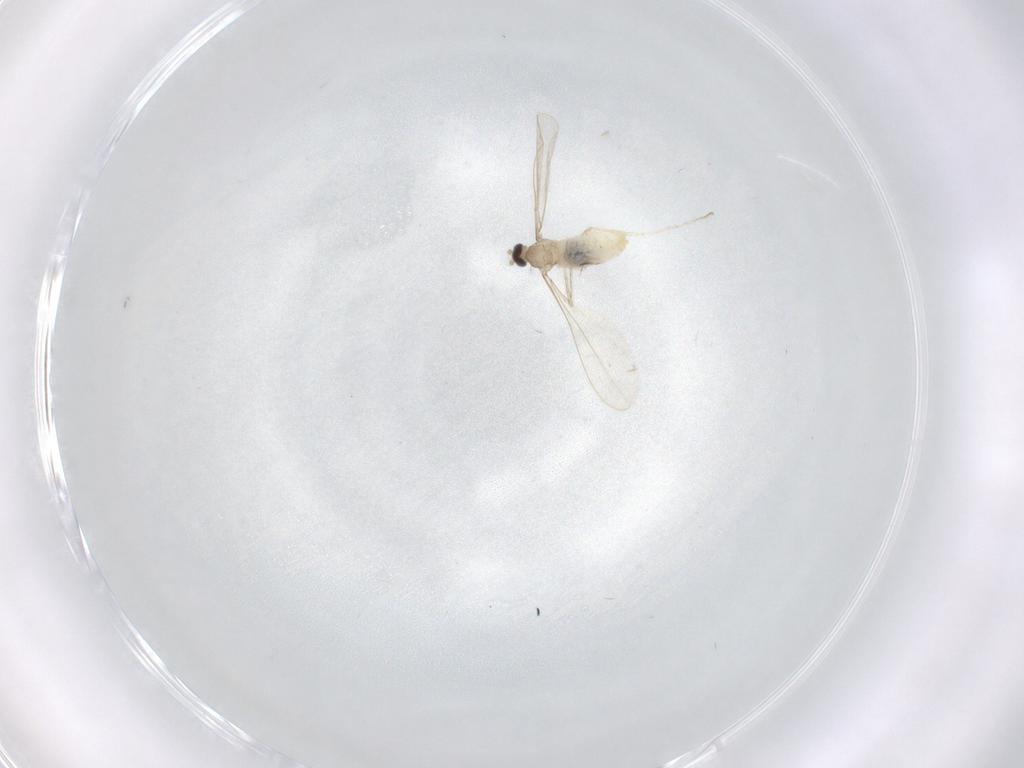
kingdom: Animalia
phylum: Arthropoda
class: Insecta
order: Diptera
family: Cecidomyiidae
